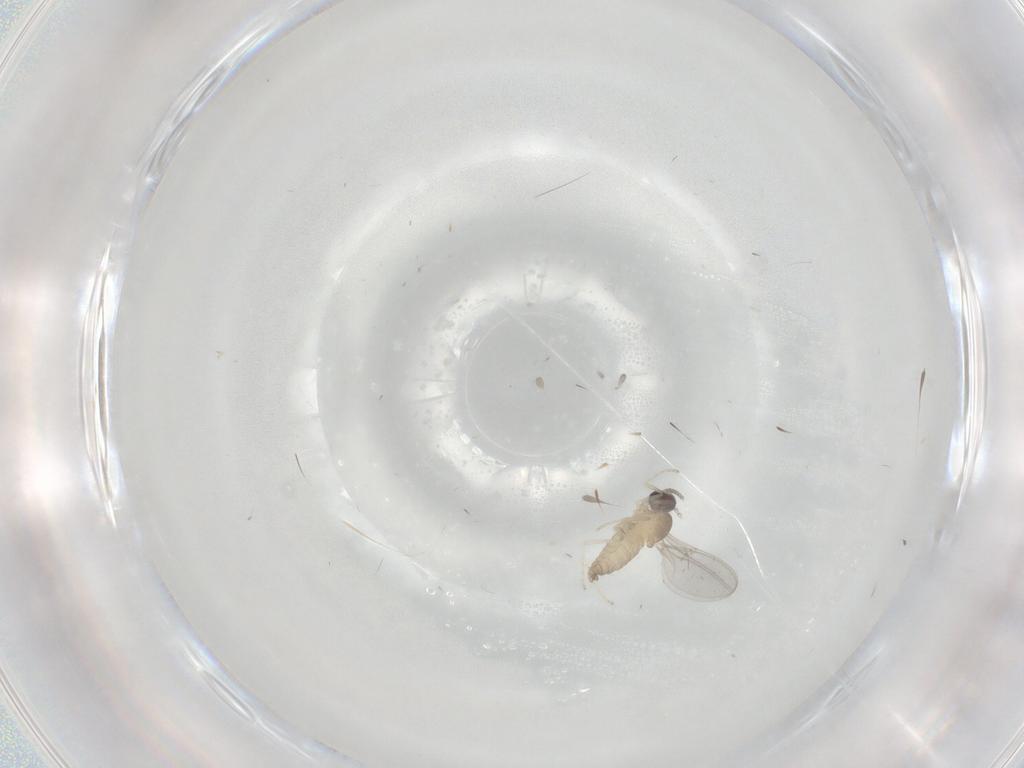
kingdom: Animalia
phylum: Arthropoda
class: Insecta
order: Diptera
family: Cecidomyiidae
